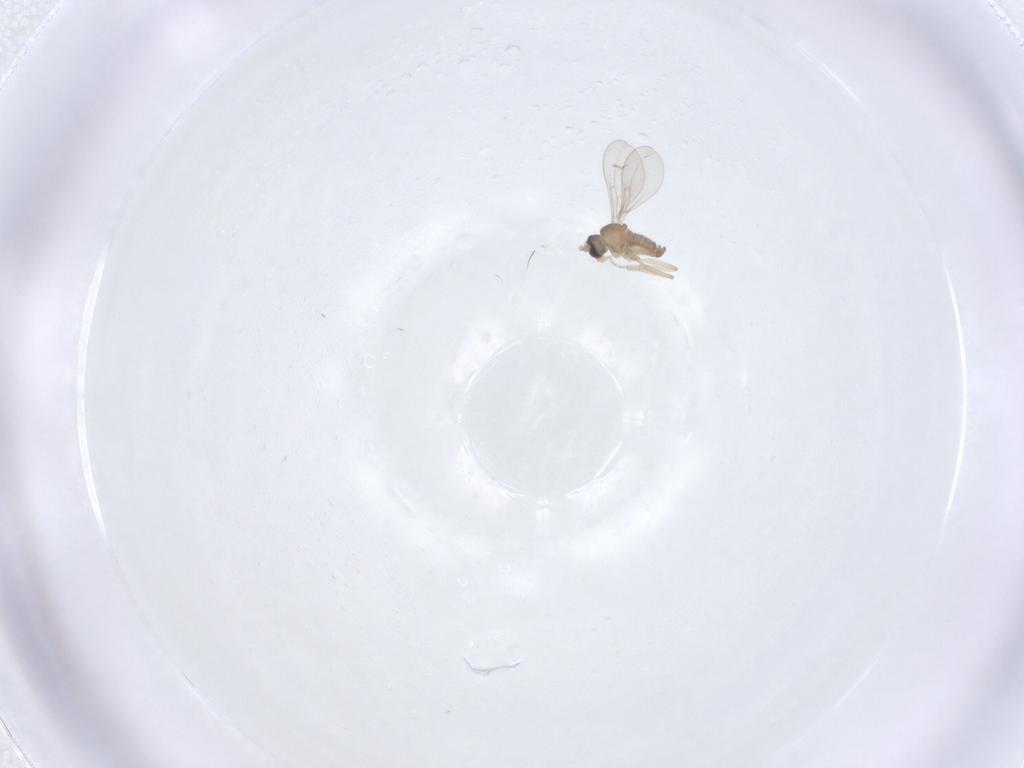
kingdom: Animalia
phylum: Arthropoda
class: Insecta
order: Diptera
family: Cecidomyiidae
